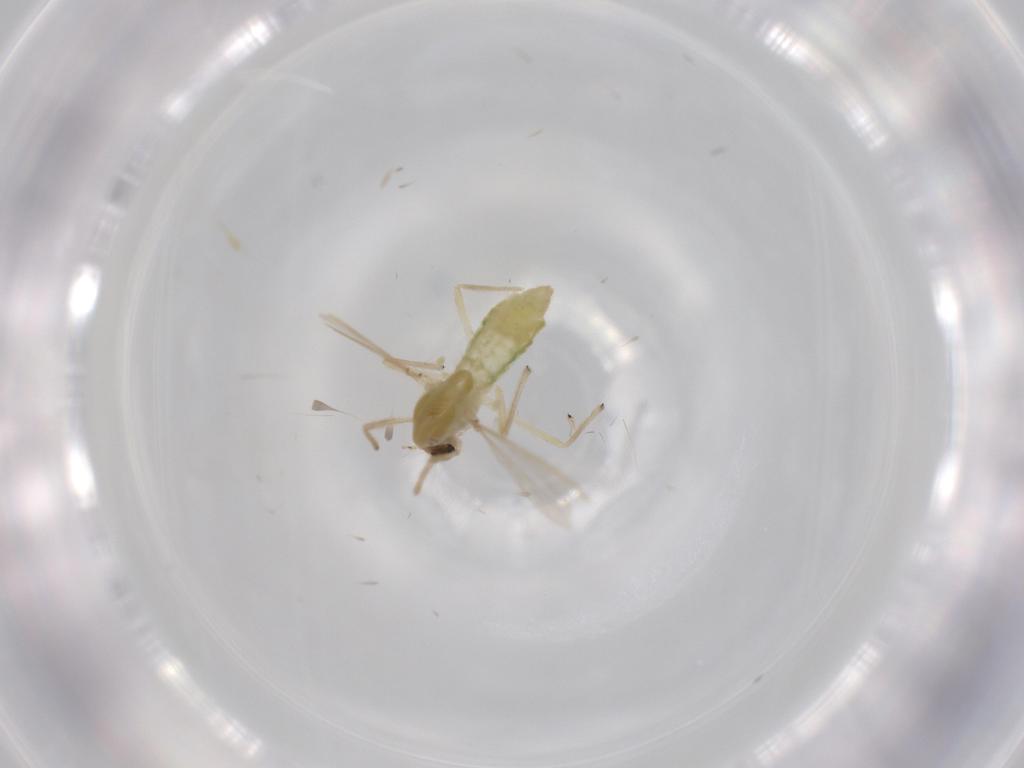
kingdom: Animalia
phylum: Arthropoda
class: Insecta
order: Diptera
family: Cecidomyiidae
